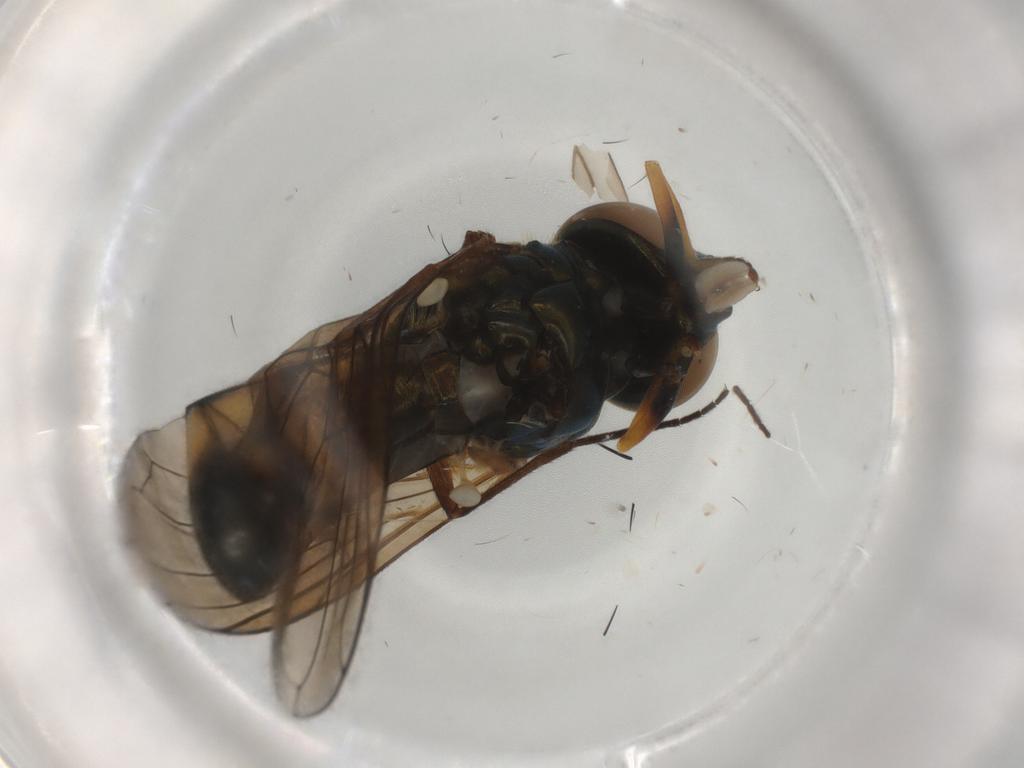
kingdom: Animalia
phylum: Arthropoda
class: Insecta
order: Diptera
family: Syrphidae
